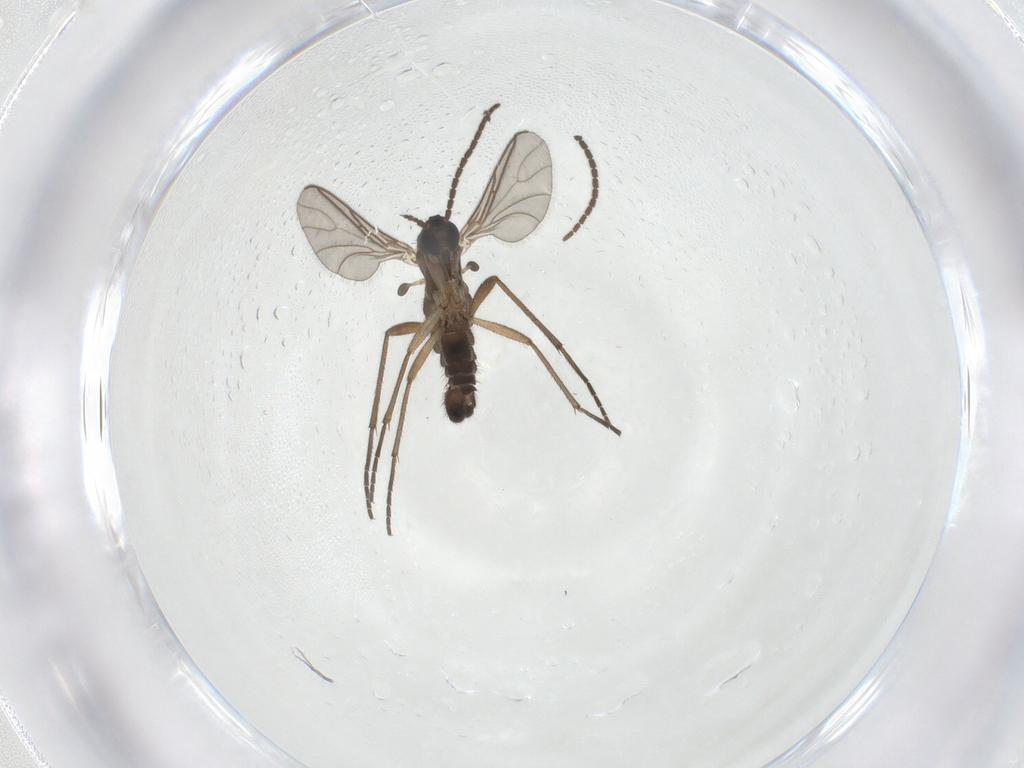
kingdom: Animalia
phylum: Arthropoda
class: Insecta
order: Diptera
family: Sciaridae
